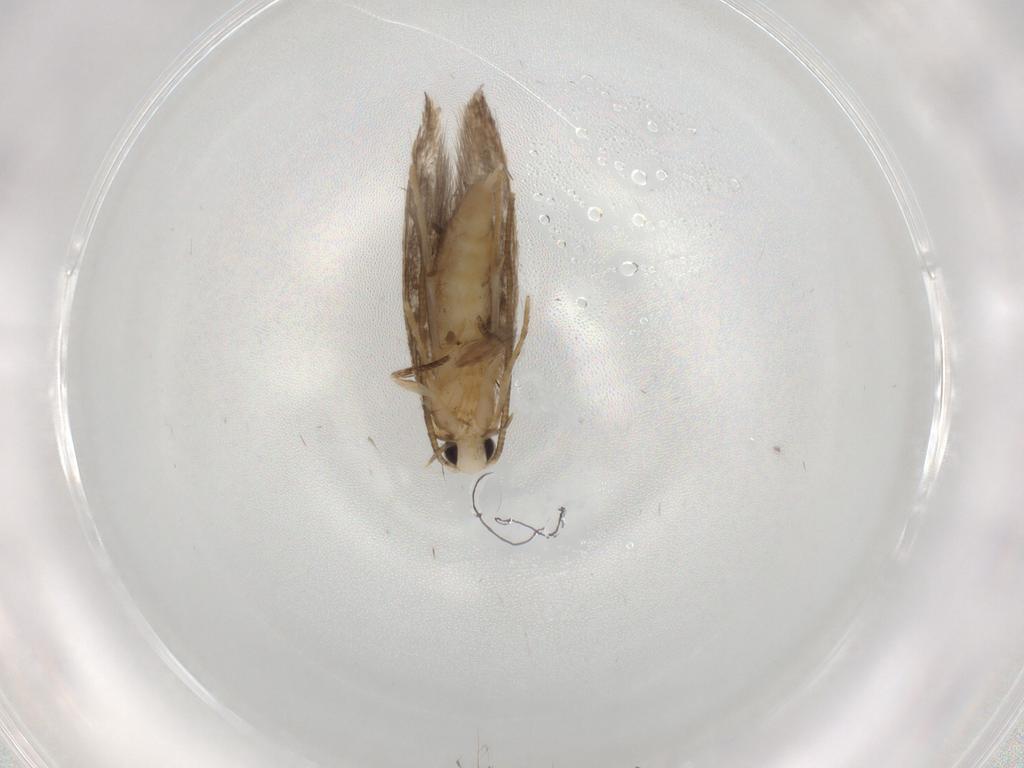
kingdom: Animalia
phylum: Arthropoda
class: Insecta
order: Lepidoptera
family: Tineidae
